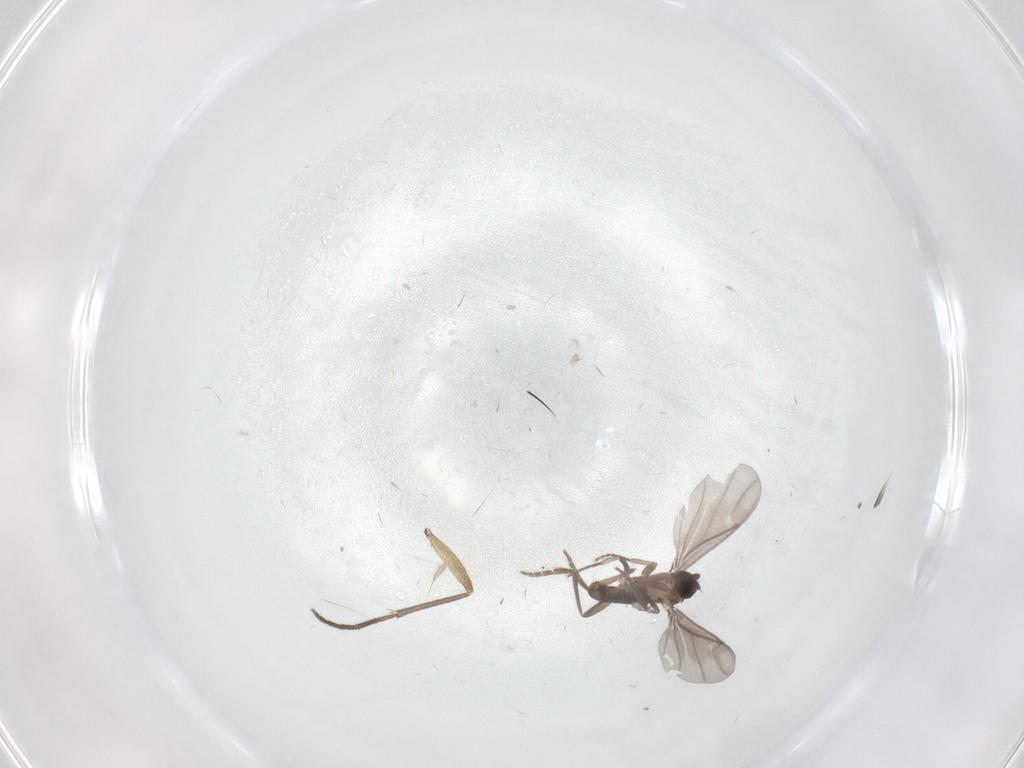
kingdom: Animalia
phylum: Arthropoda
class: Insecta
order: Diptera
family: Phoridae
